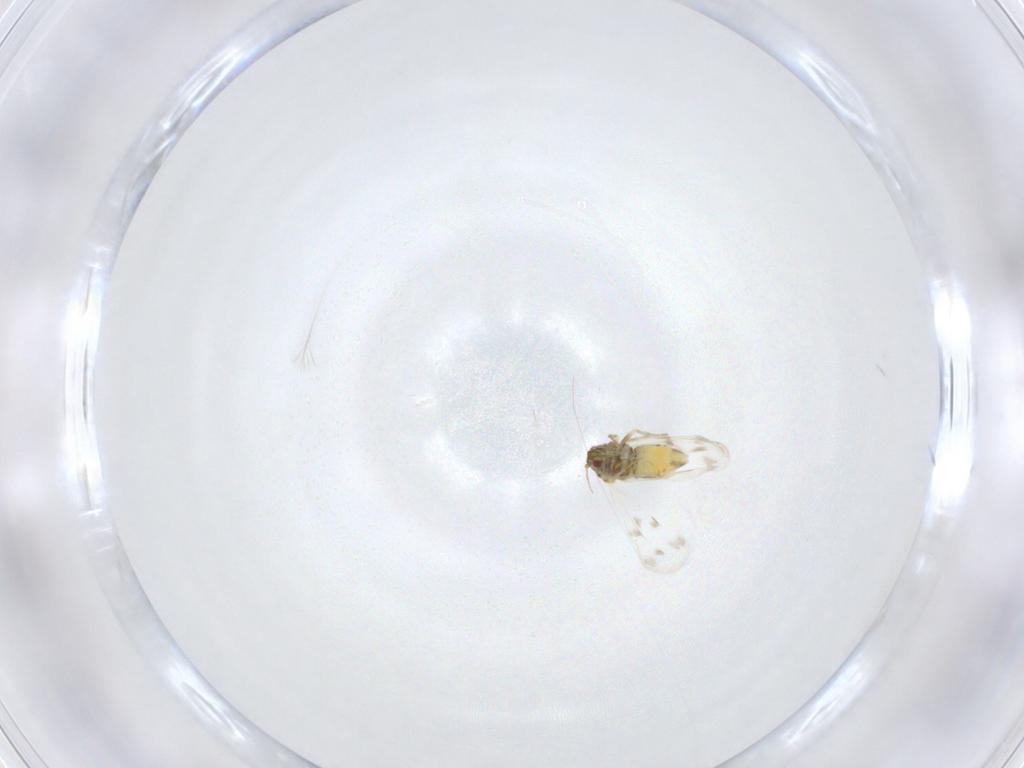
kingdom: Animalia
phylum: Arthropoda
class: Insecta
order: Hemiptera
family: Aleyrodidae
